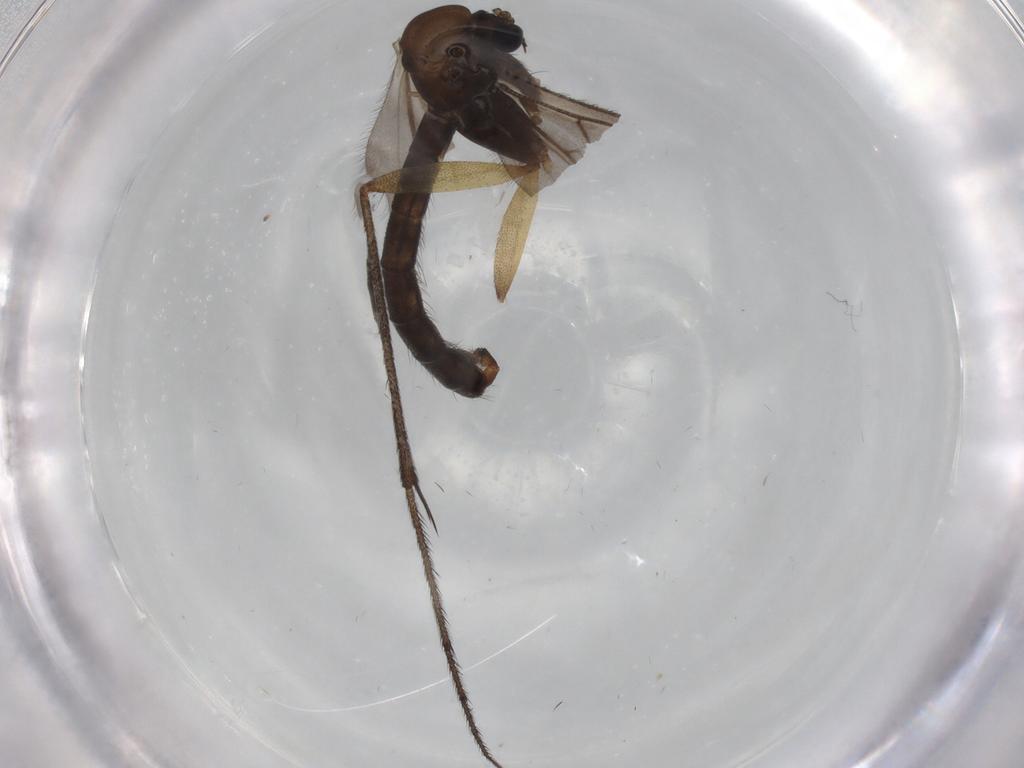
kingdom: Animalia
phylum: Arthropoda
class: Insecta
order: Diptera
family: Ditomyiidae
